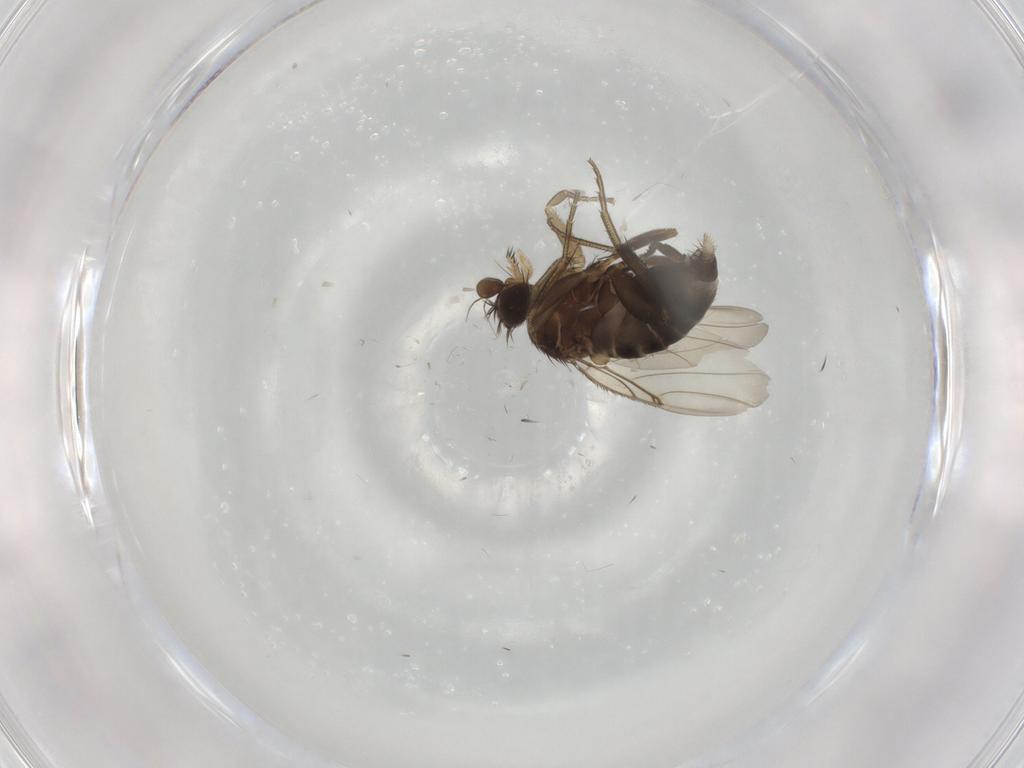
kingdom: Animalia
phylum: Arthropoda
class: Insecta
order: Diptera
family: Phoridae
